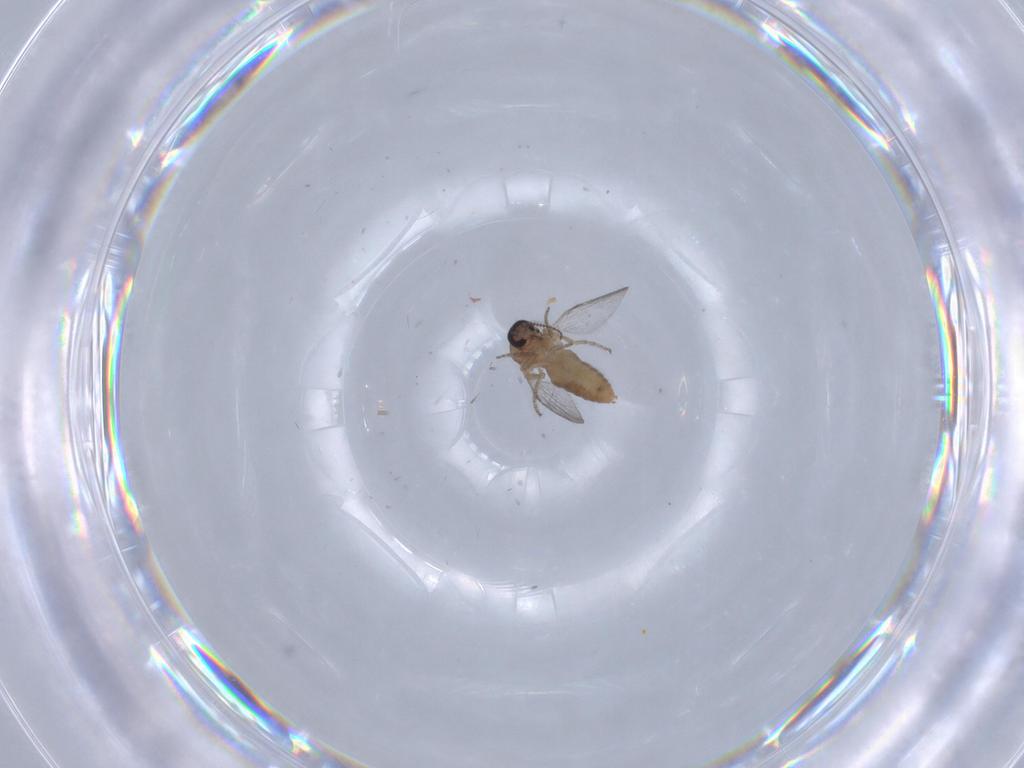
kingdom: Animalia
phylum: Arthropoda
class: Insecta
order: Diptera
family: Ceratopogonidae
